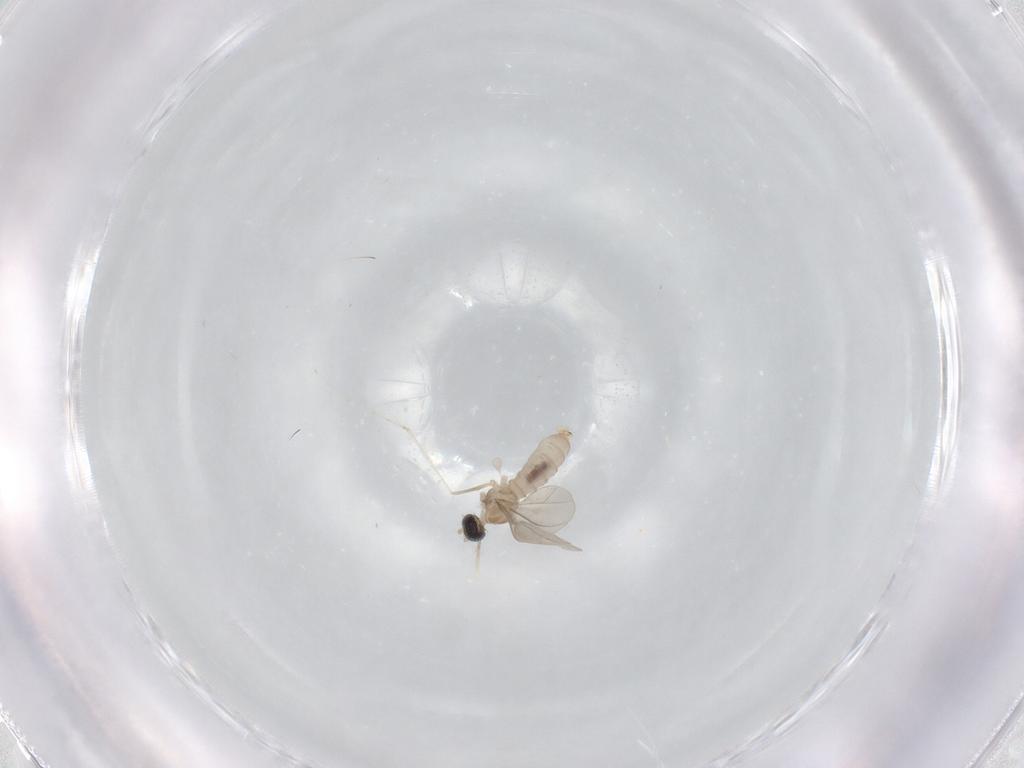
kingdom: Animalia
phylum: Arthropoda
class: Insecta
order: Diptera
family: Cecidomyiidae
